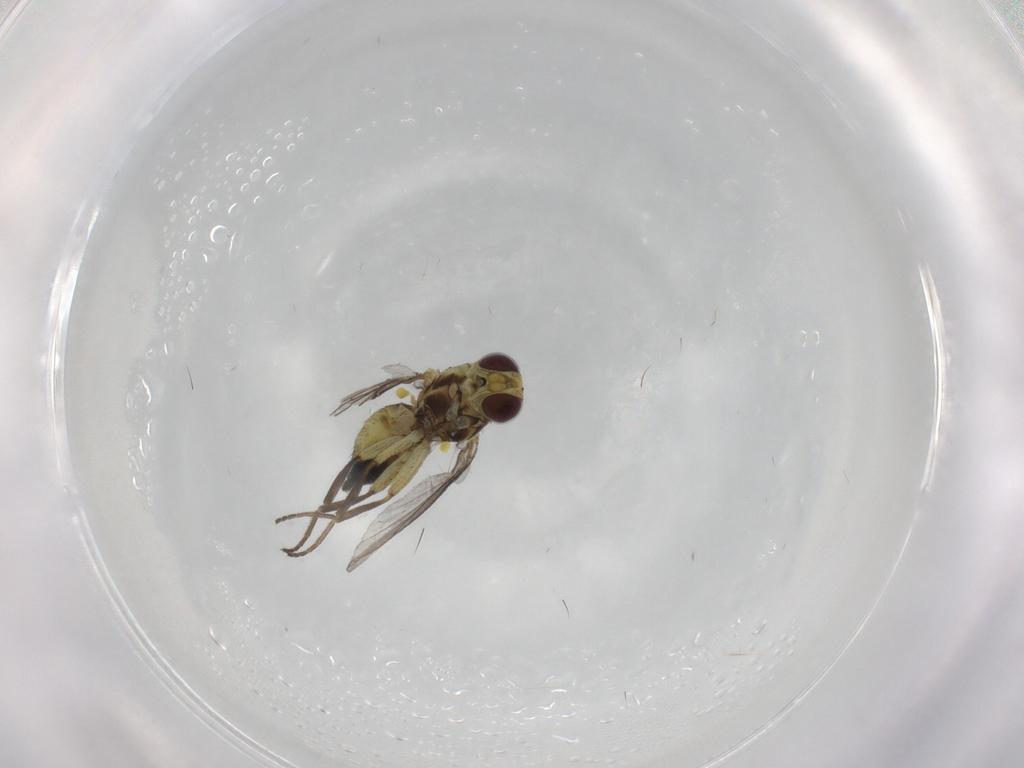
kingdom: Animalia
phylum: Arthropoda
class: Insecta
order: Diptera
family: Agromyzidae
